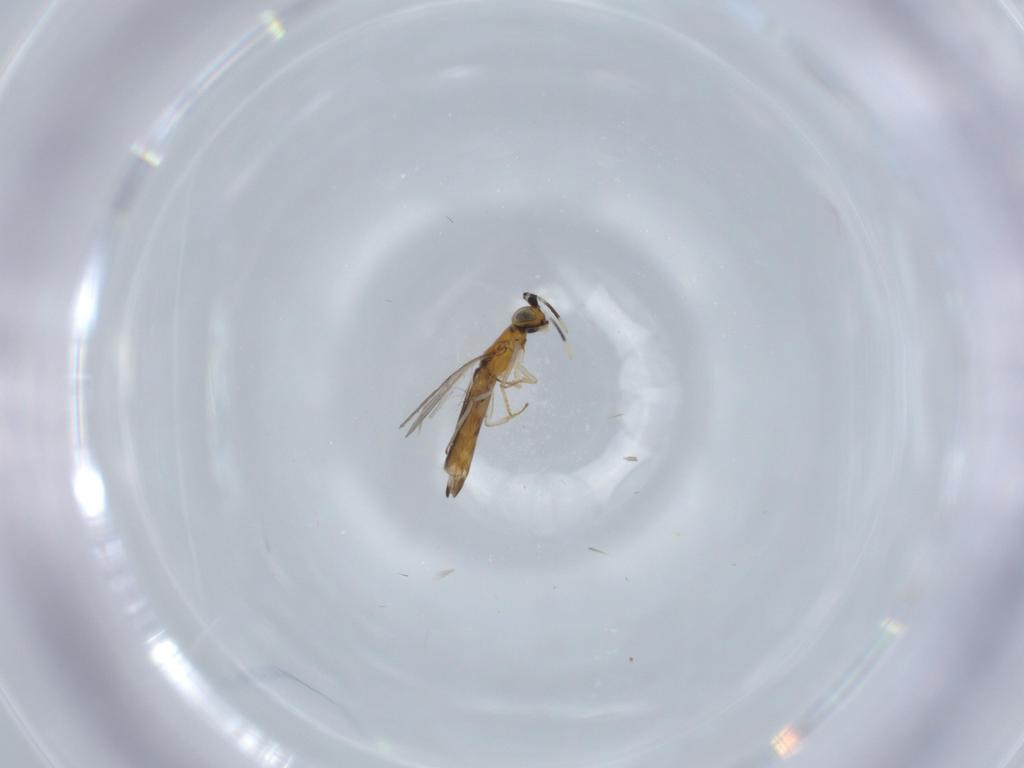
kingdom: Animalia
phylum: Arthropoda
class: Insecta
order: Hymenoptera
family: Encyrtidae
